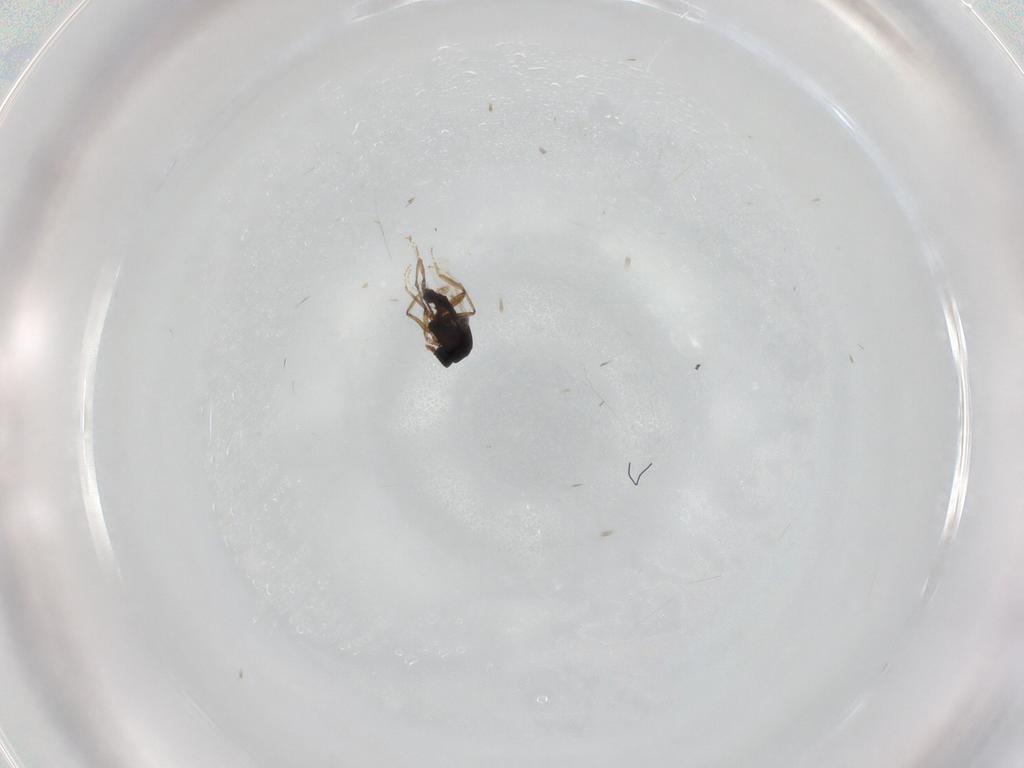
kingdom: Animalia
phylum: Arthropoda
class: Insecta
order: Diptera
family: Ceratopogonidae
